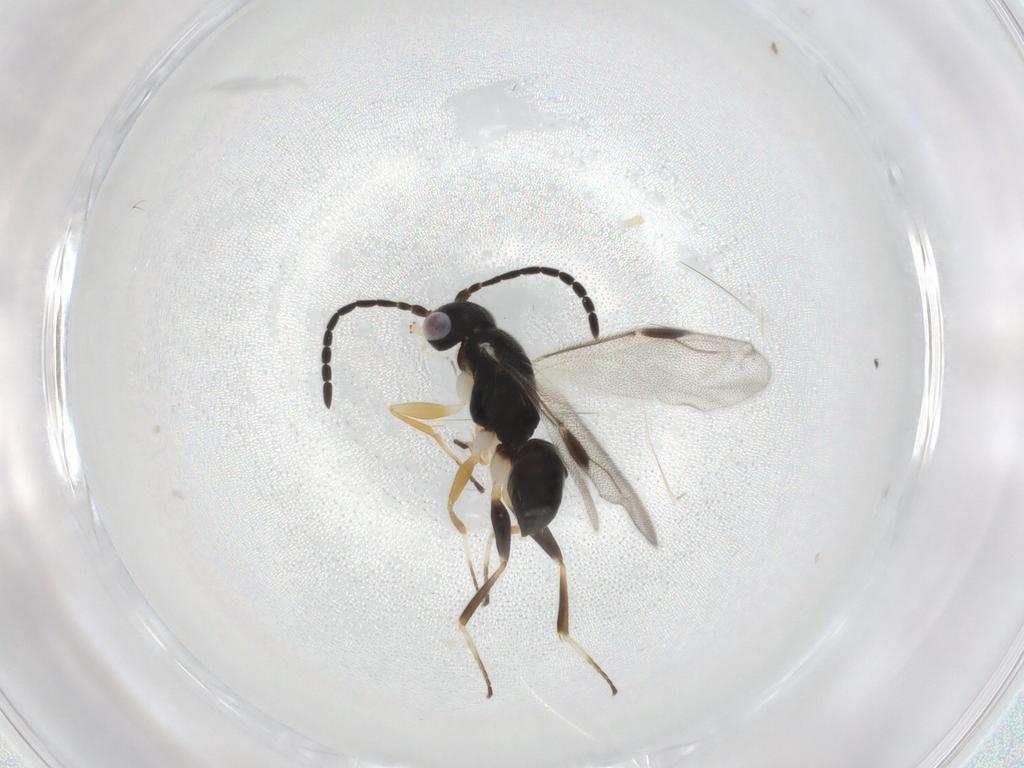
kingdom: Animalia
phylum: Arthropoda
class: Insecta
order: Hymenoptera
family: Dryinidae
